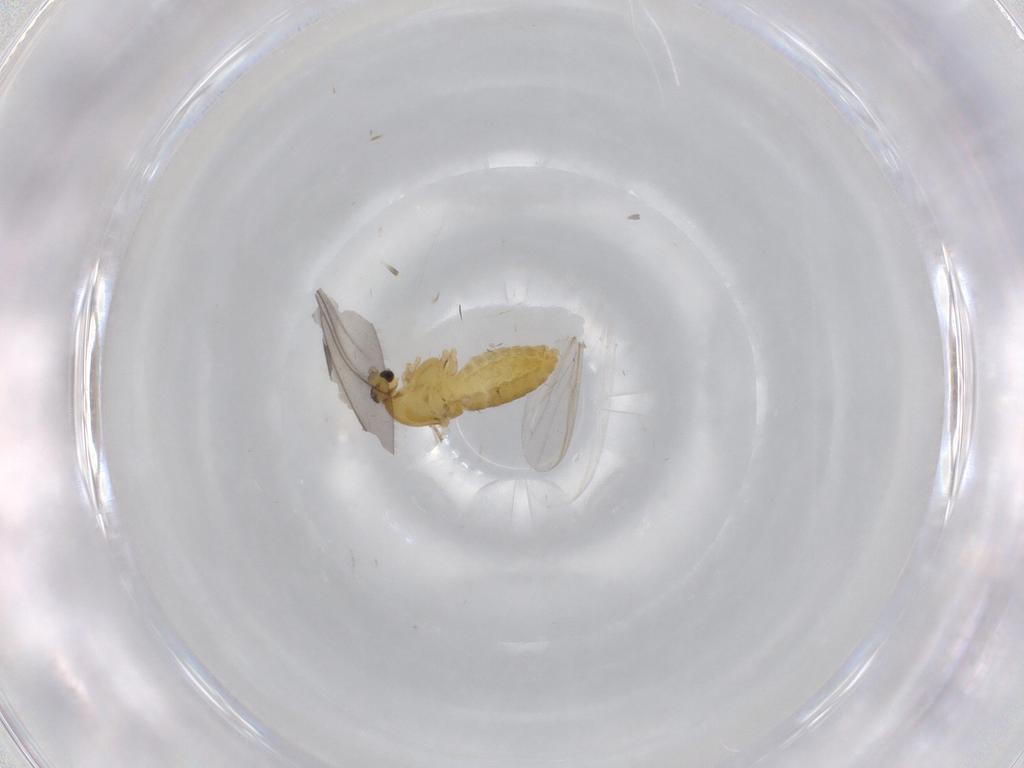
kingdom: Animalia
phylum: Arthropoda
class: Insecta
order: Diptera
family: Chironomidae
